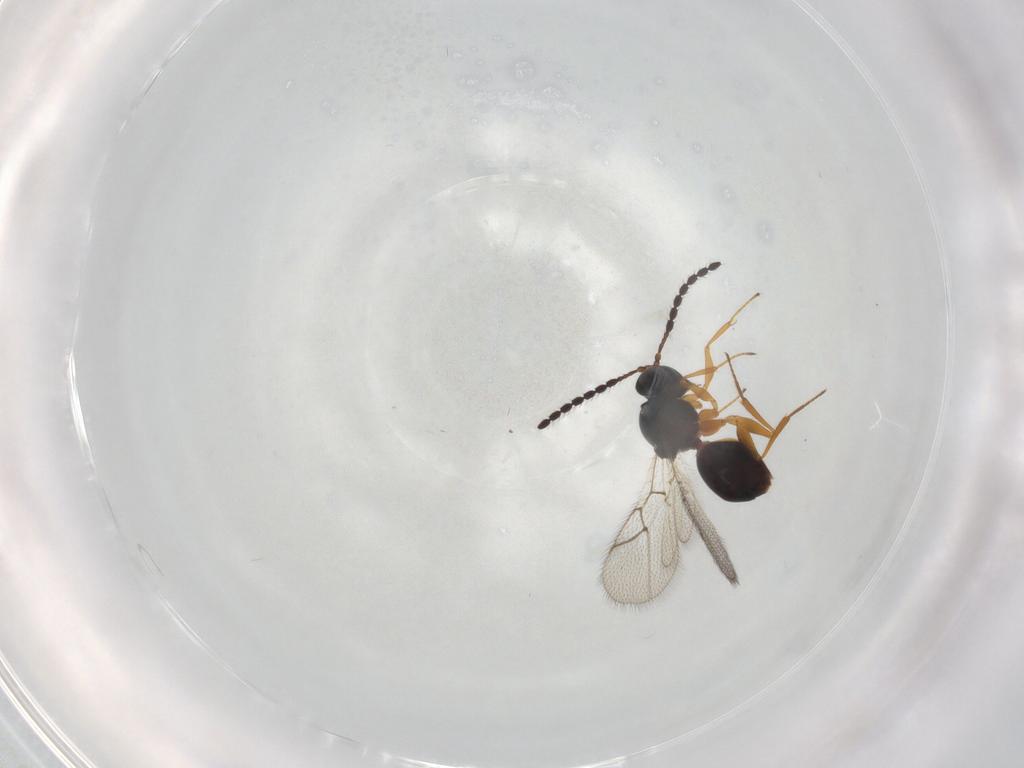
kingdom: Animalia
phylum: Arthropoda
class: Insecta
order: Hymenoptera
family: Figitidae
